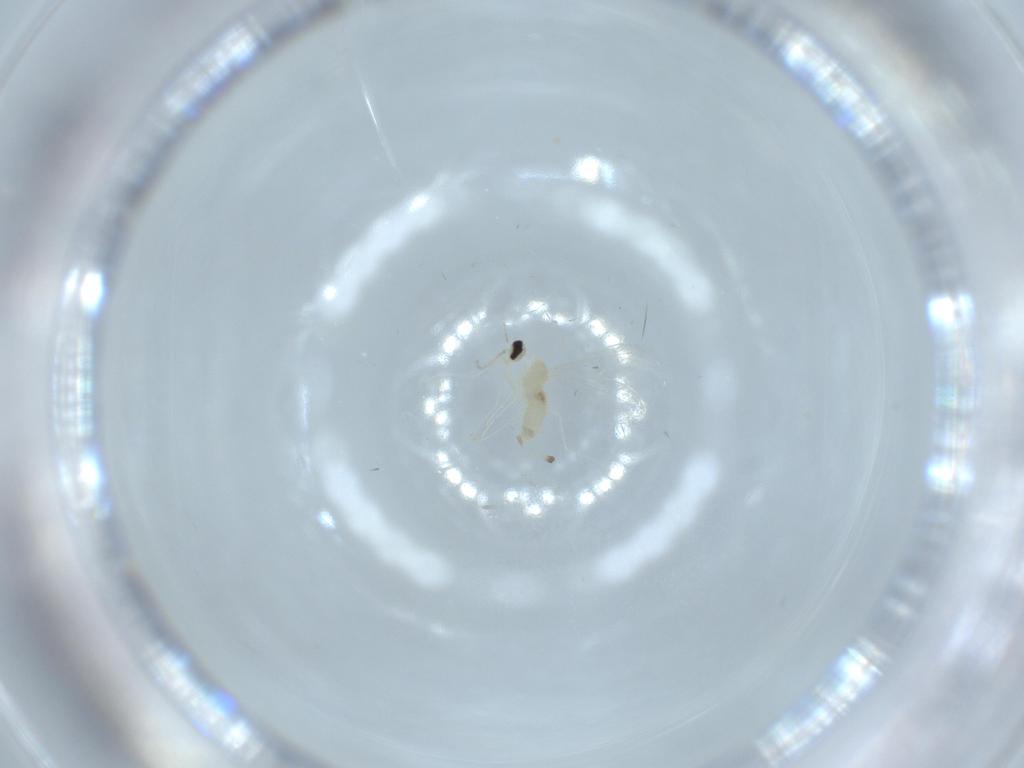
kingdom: Animalia
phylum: Arthropoda
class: Insecta
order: Diptera
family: Cecidomyiidae
